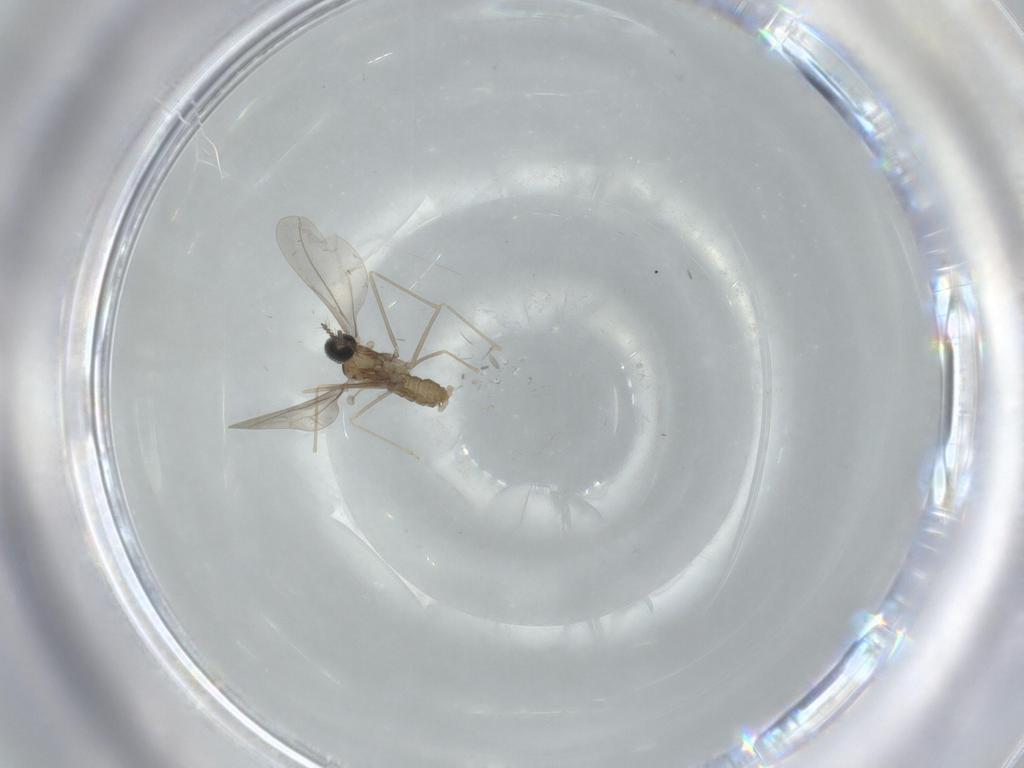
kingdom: Animalia
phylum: Arthropoda
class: Insecta
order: Diptera
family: Cecidomyiidae
